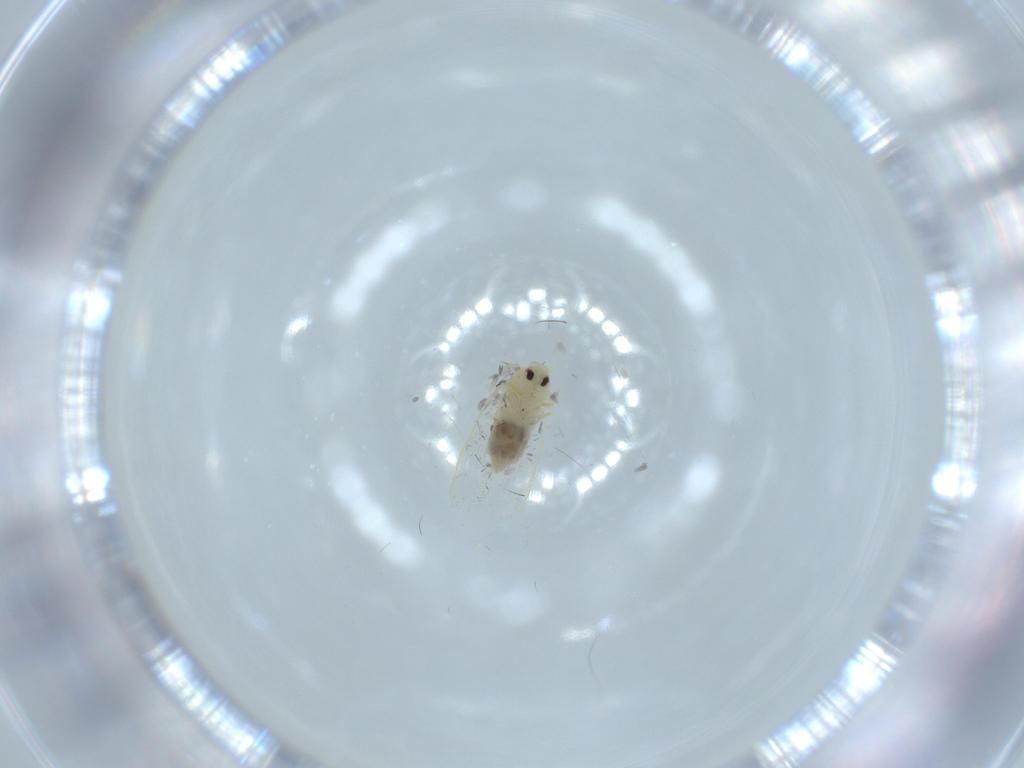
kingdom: Animalia
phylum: Arthropoda
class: Insecta
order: Hemiptera
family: Aleyrodidae
